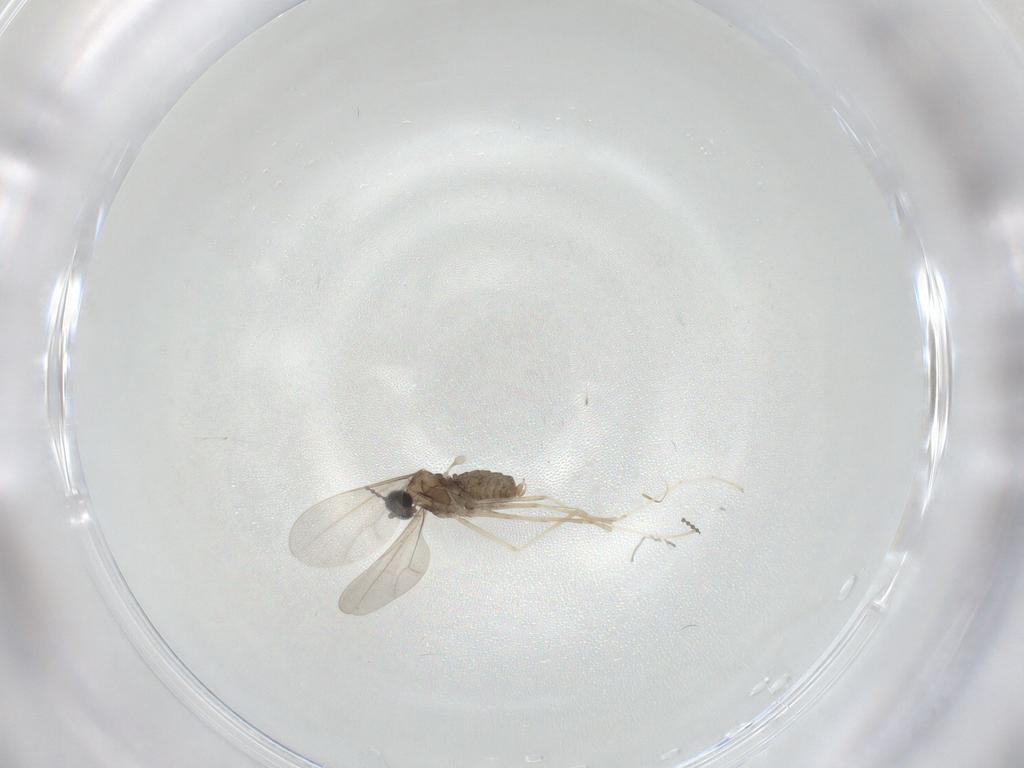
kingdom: Animalia
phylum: Arthropoda
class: Insecta
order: Diptera
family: Cecidomyiidae
